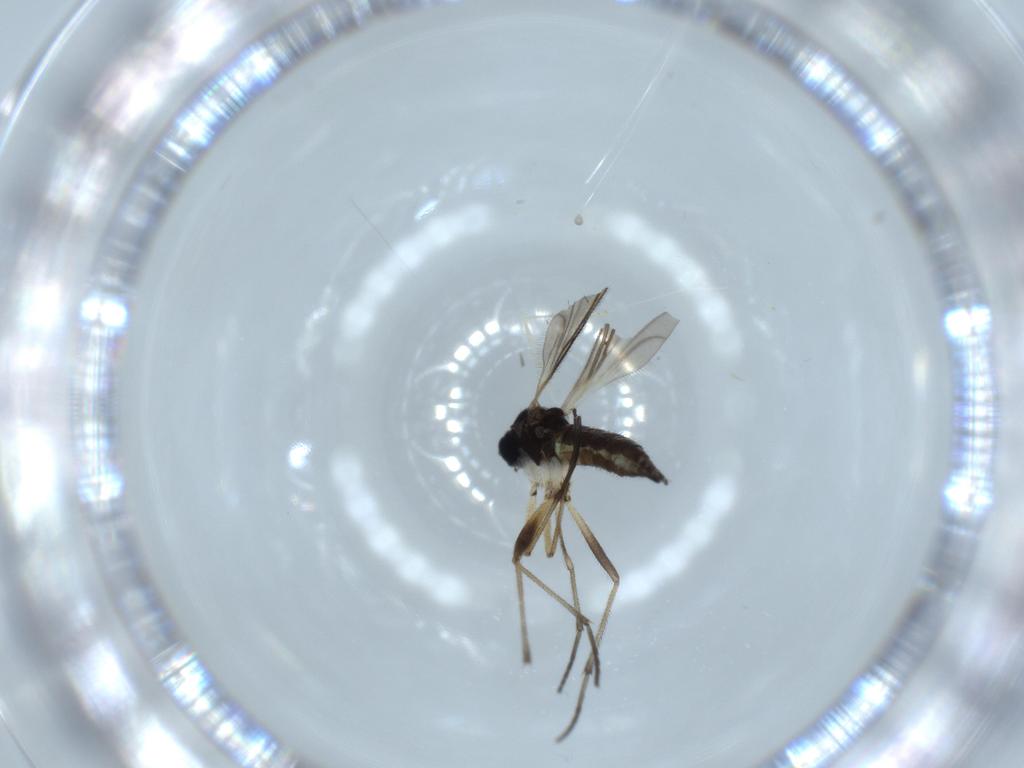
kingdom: Animalia
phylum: Arthropoda
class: Insecta
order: Diptera
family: Sciaridae
